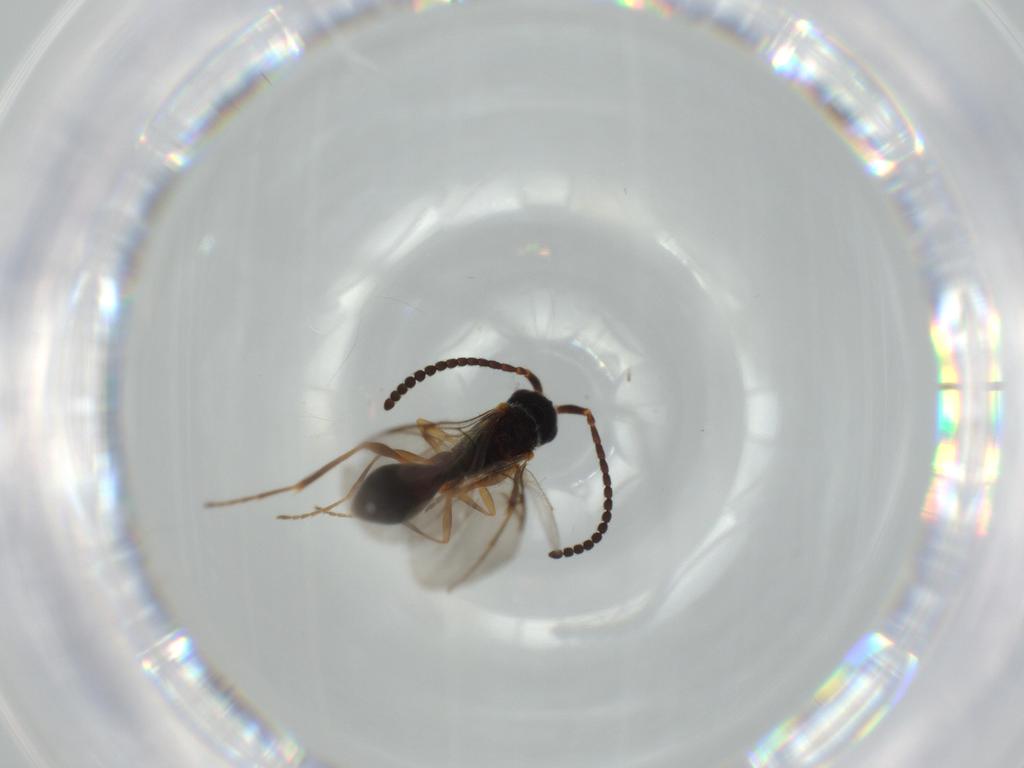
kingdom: Animalia
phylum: Arthropoda
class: Insecta
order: Hymenoptera
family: Diapriidae
